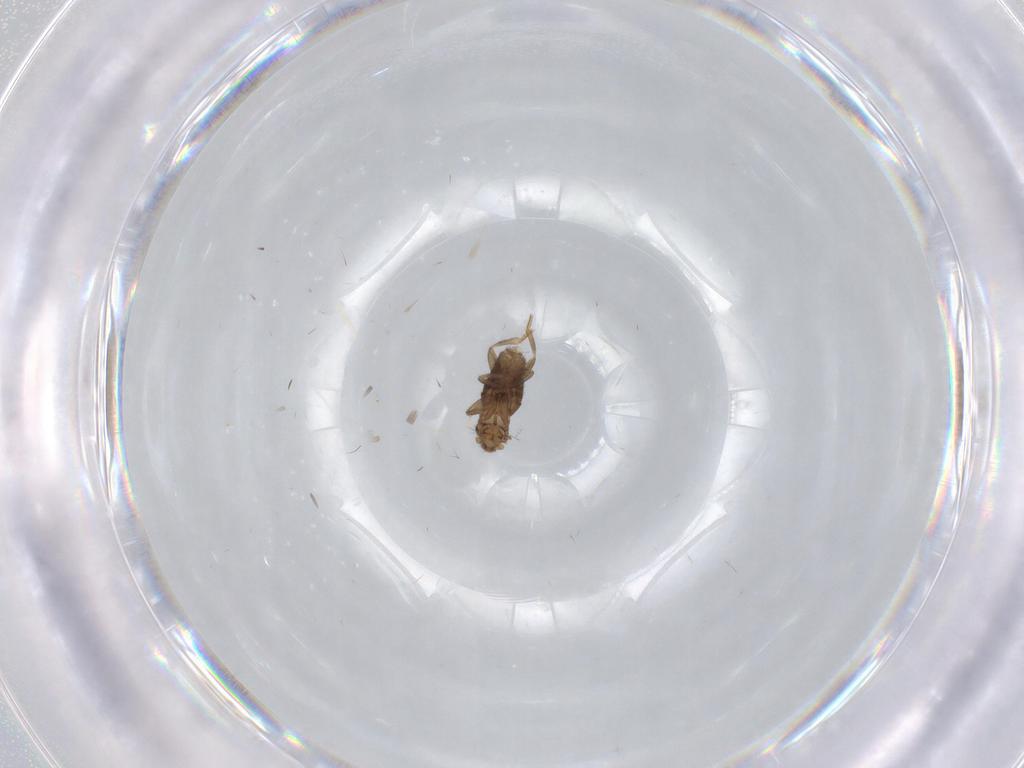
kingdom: Animalia
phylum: Arthropoda
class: Insecta
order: Diptera
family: Phoridae
